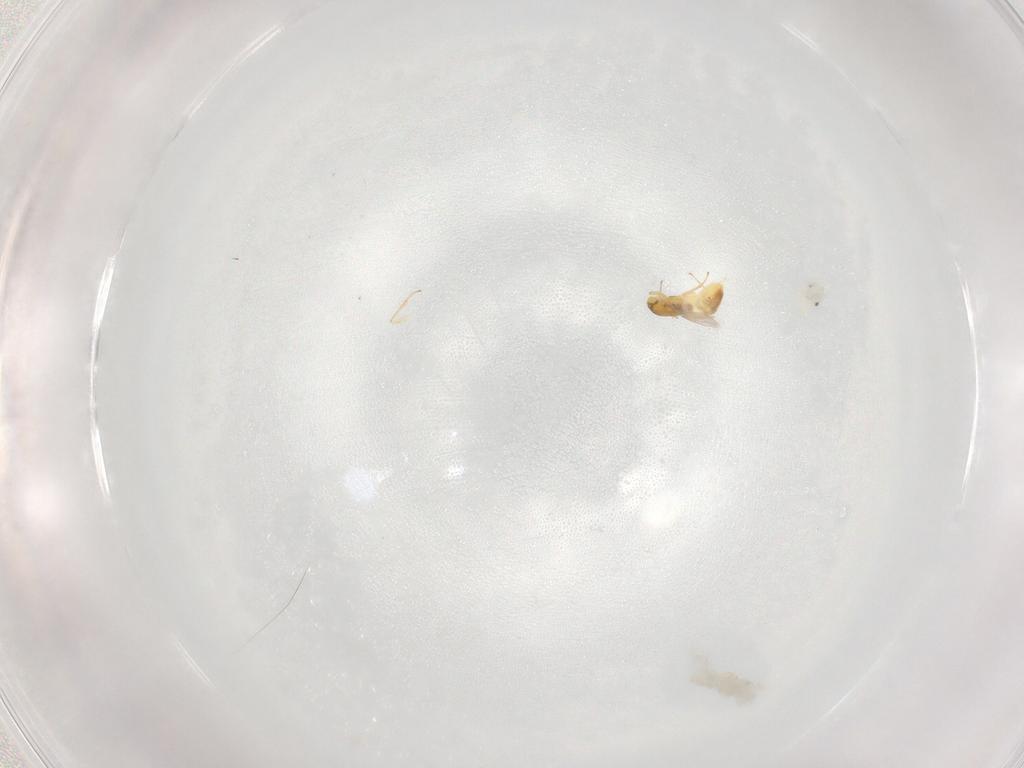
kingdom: Animalia
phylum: Arthropoda
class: Insecta
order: Hymenoptera
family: Encyrtidae
